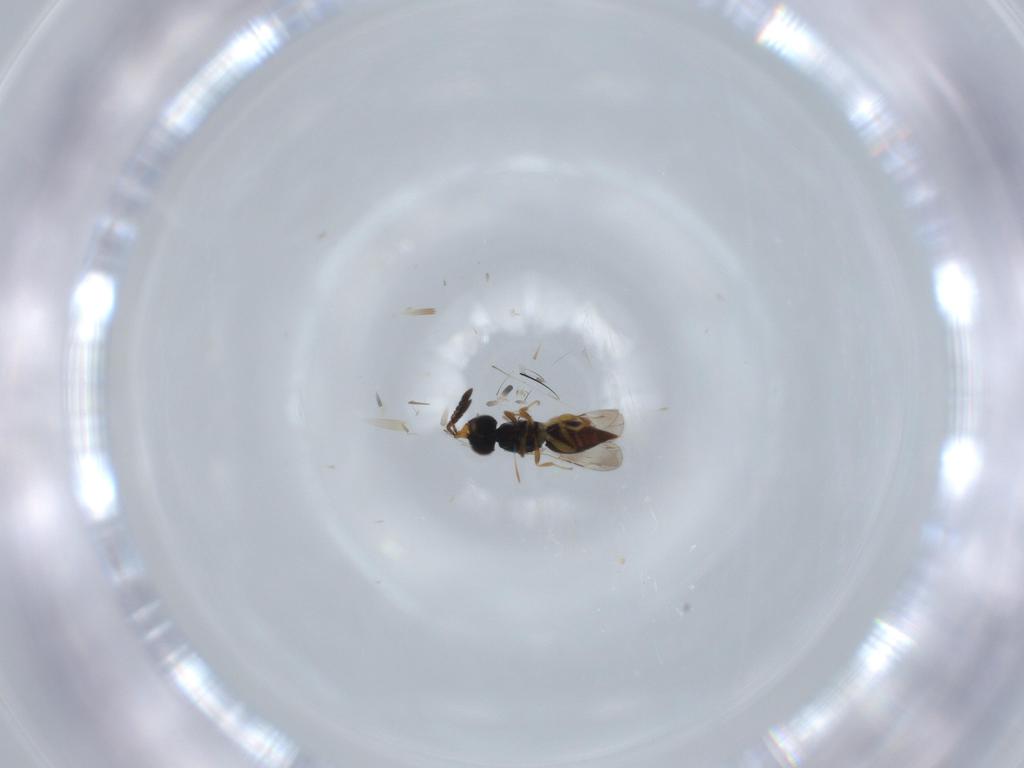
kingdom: Animalia
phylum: Arthropoda
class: Insecta
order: Hymenoptera
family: Ceraphronidae
